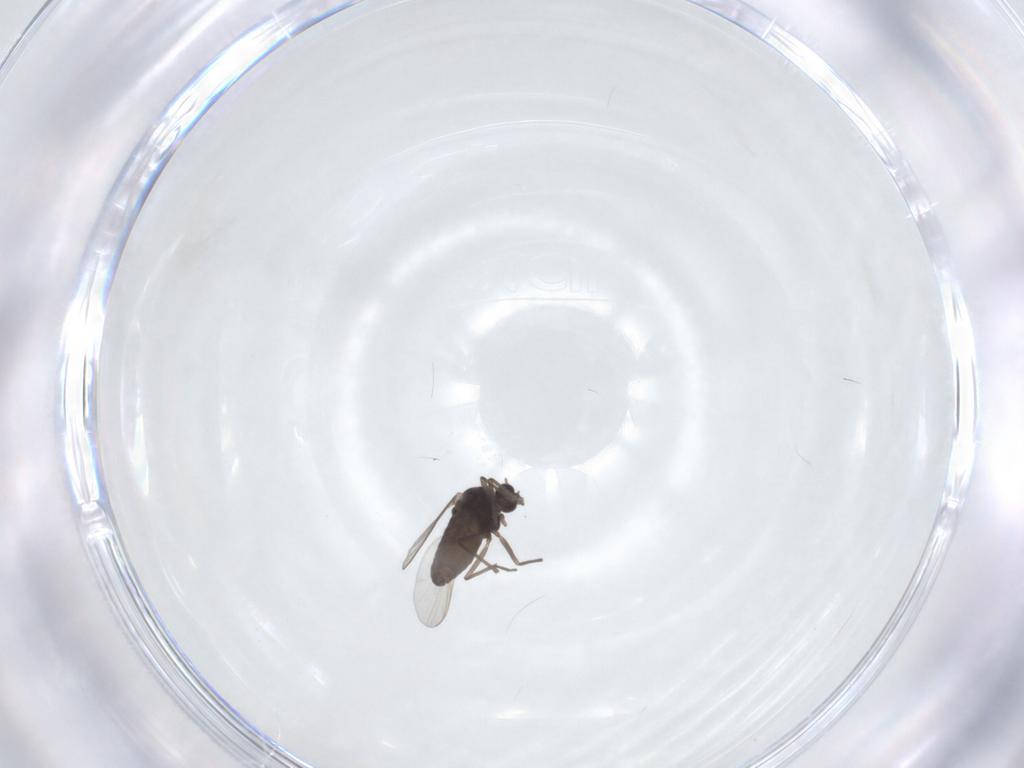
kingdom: Animalia
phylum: Arthropoda
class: Insecta
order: Diptera
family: Chironomidae
